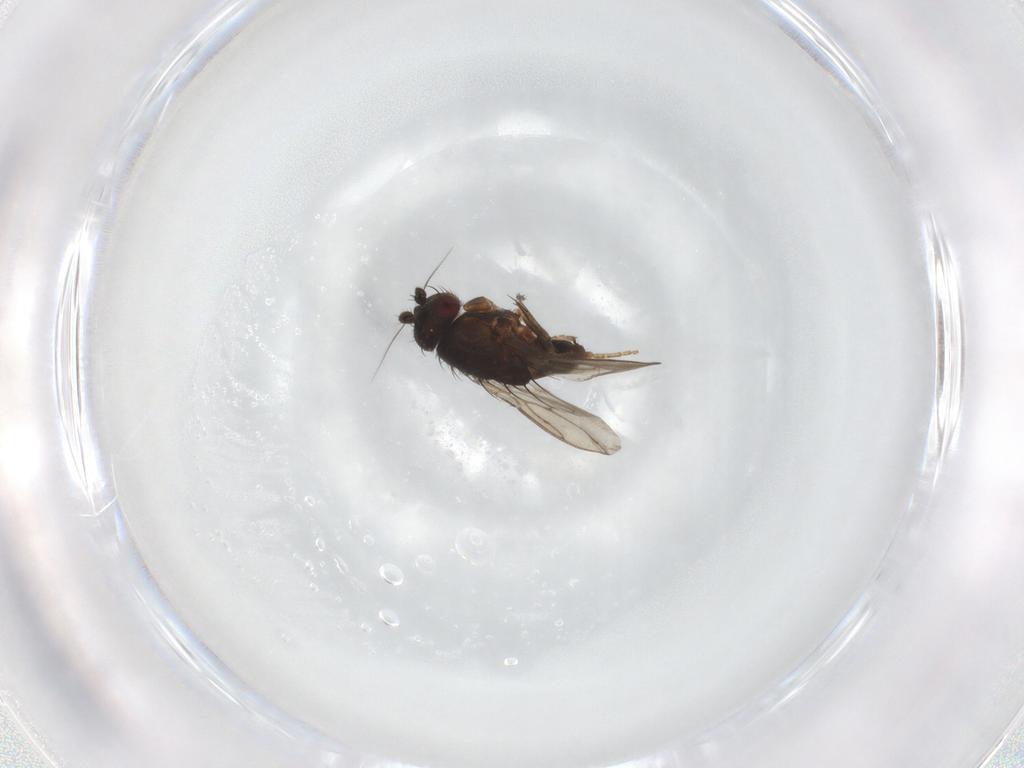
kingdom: Animalia
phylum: Arthropoda
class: Insecta
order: Diptera
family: Sphaeroceridae
